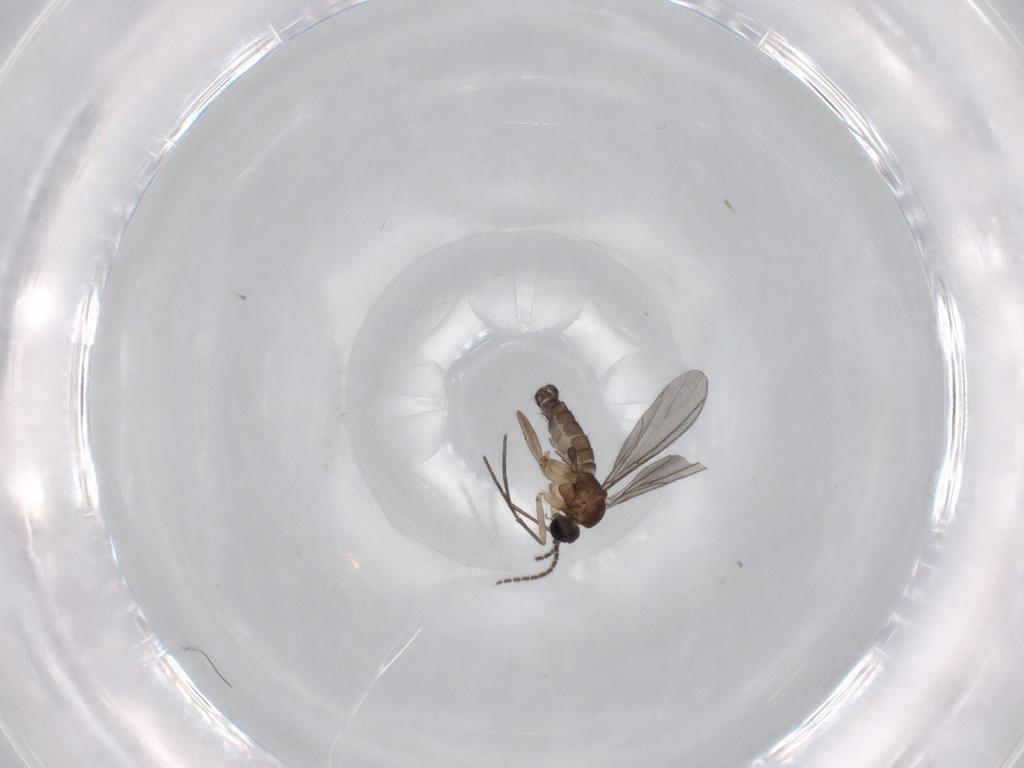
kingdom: Animalia
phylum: Arthropoda
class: Insecta
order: Diptera
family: Sciaridae
